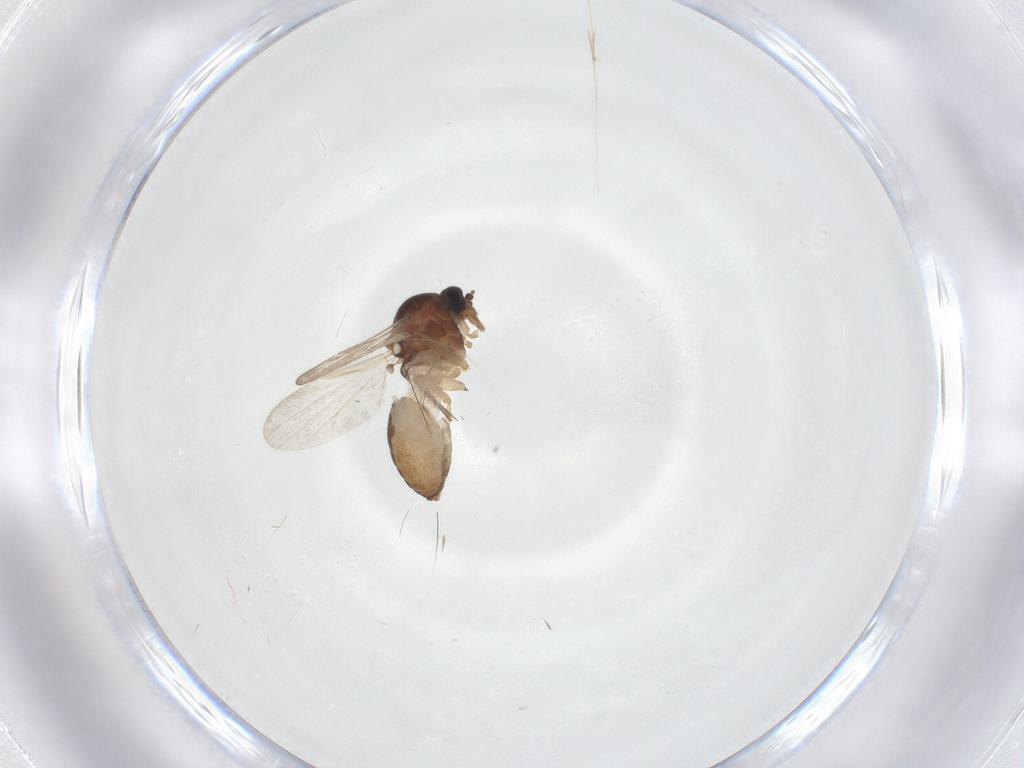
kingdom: Animalia
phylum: Arthropoda
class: Insecta
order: Diptera
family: Ceratopogonidae
